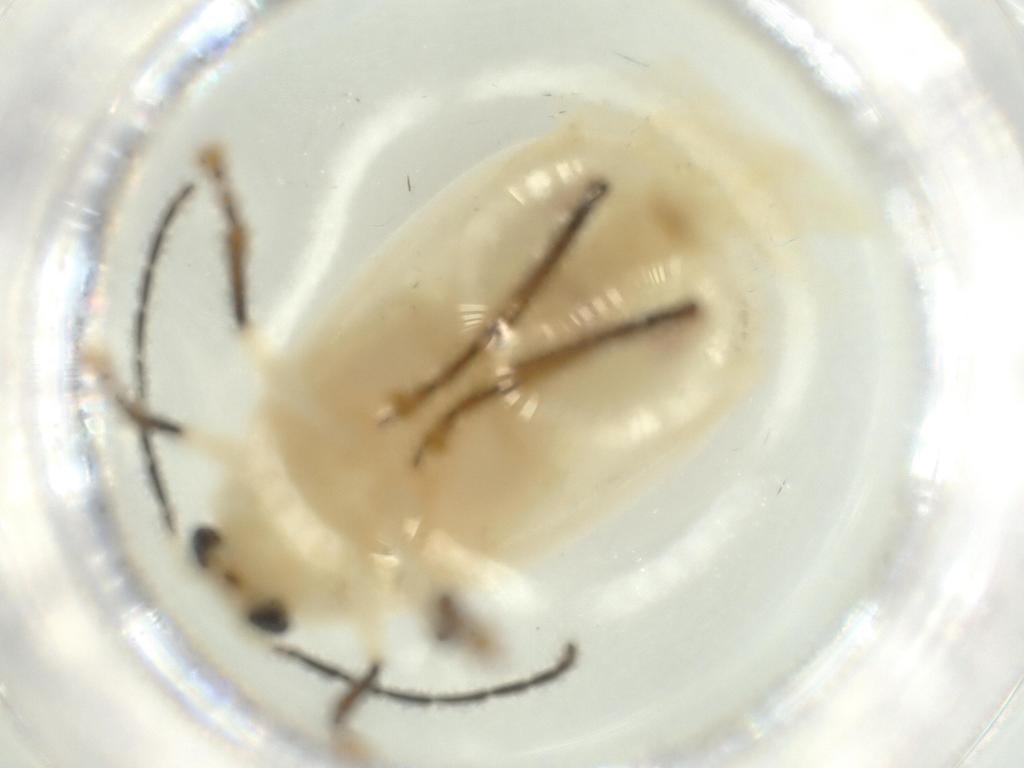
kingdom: Animalia
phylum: Arthropoda
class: Insecta
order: Coleoptera
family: Chrysomelidae
